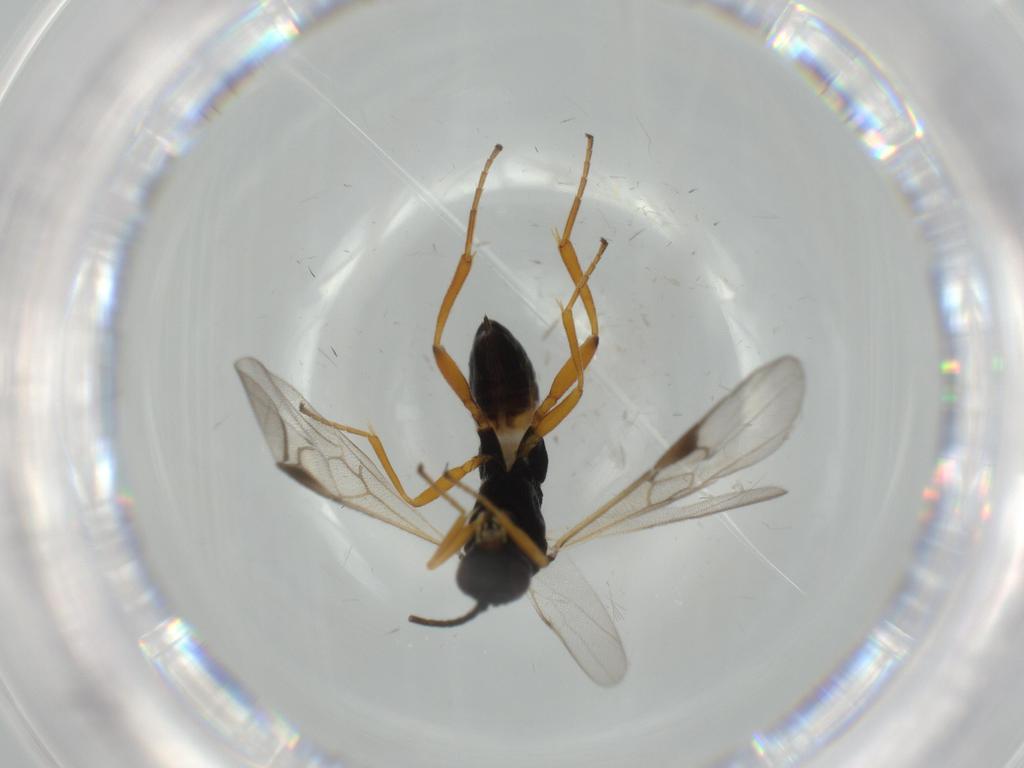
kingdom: Animalia
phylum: Arthropoda
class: Insecta
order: Hymenoptera
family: Braconidae
